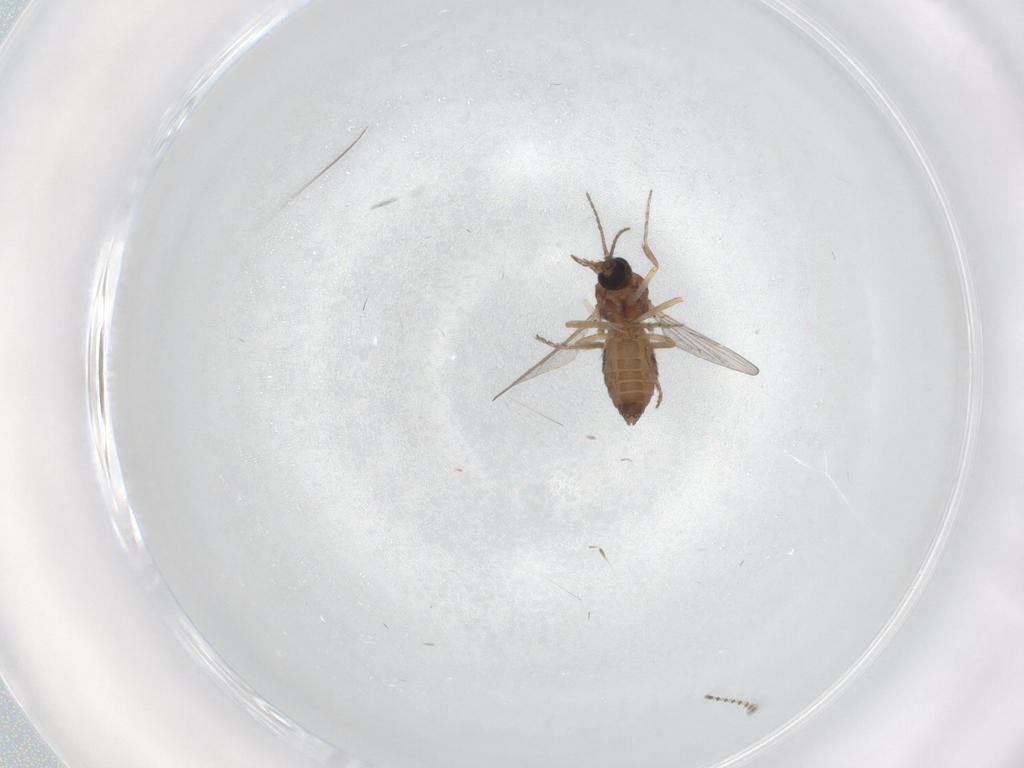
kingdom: Animalia
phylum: Arthropoda
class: Insecta
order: Diptera
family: Ceratopogonidae
